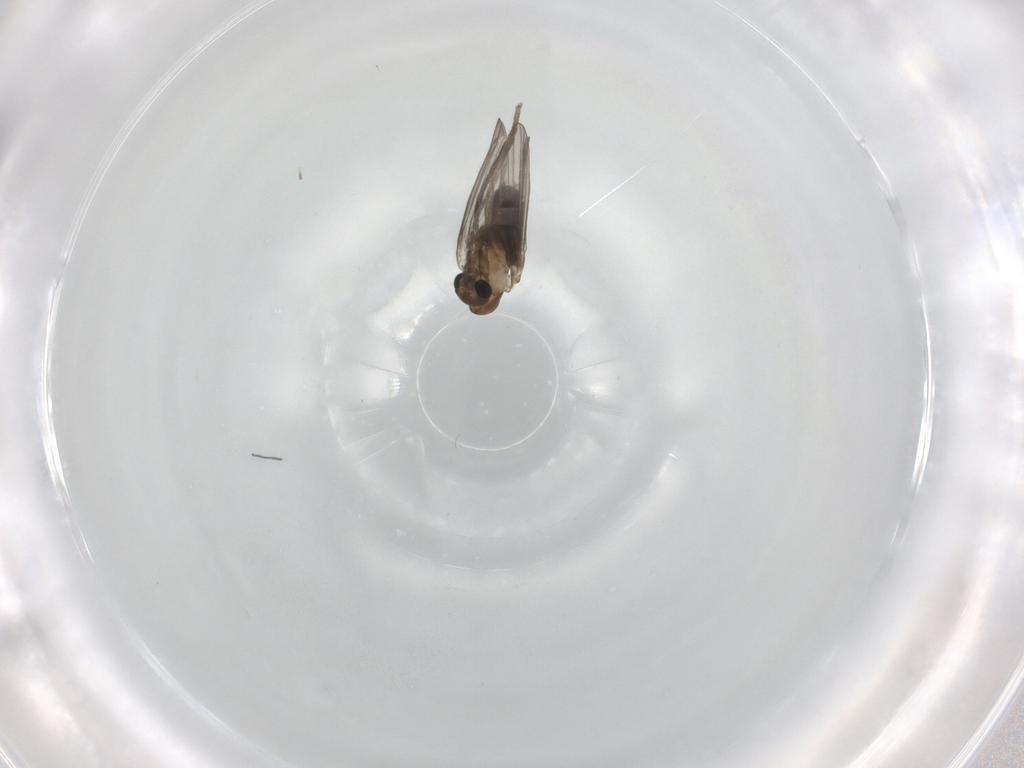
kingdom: Animalia
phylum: Arthropoda
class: Insecta
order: Diptera
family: Psychodidae
